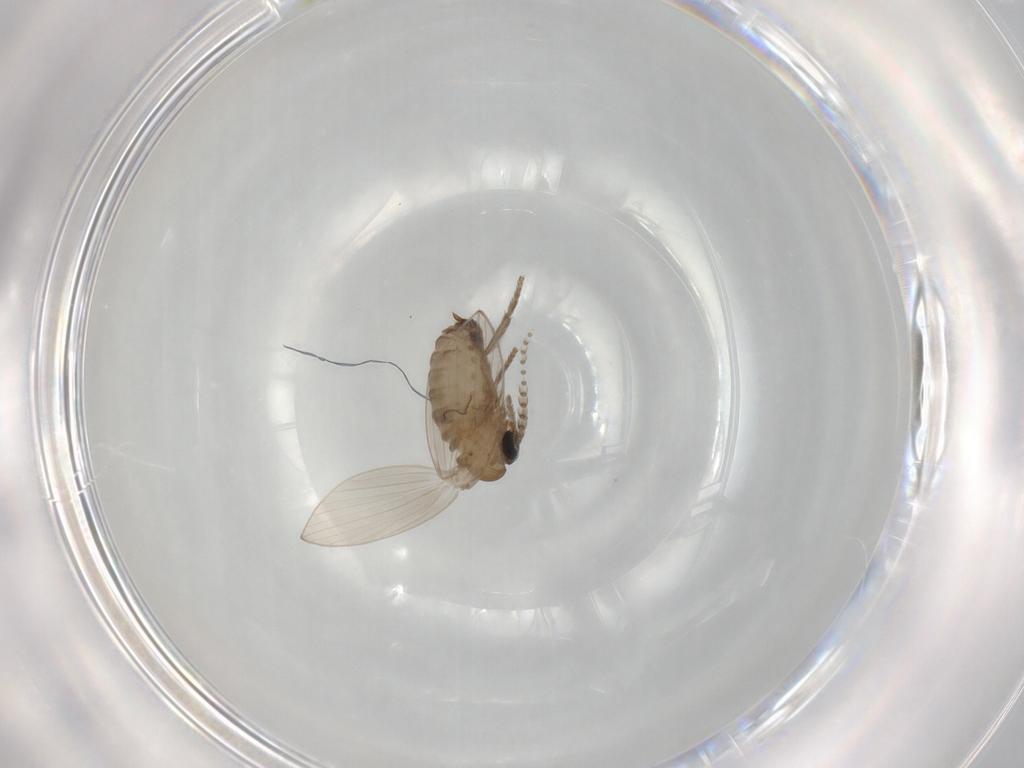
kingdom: Animalia
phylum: Arthropoda
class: Insecta
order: Diptera
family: Psychodidae
